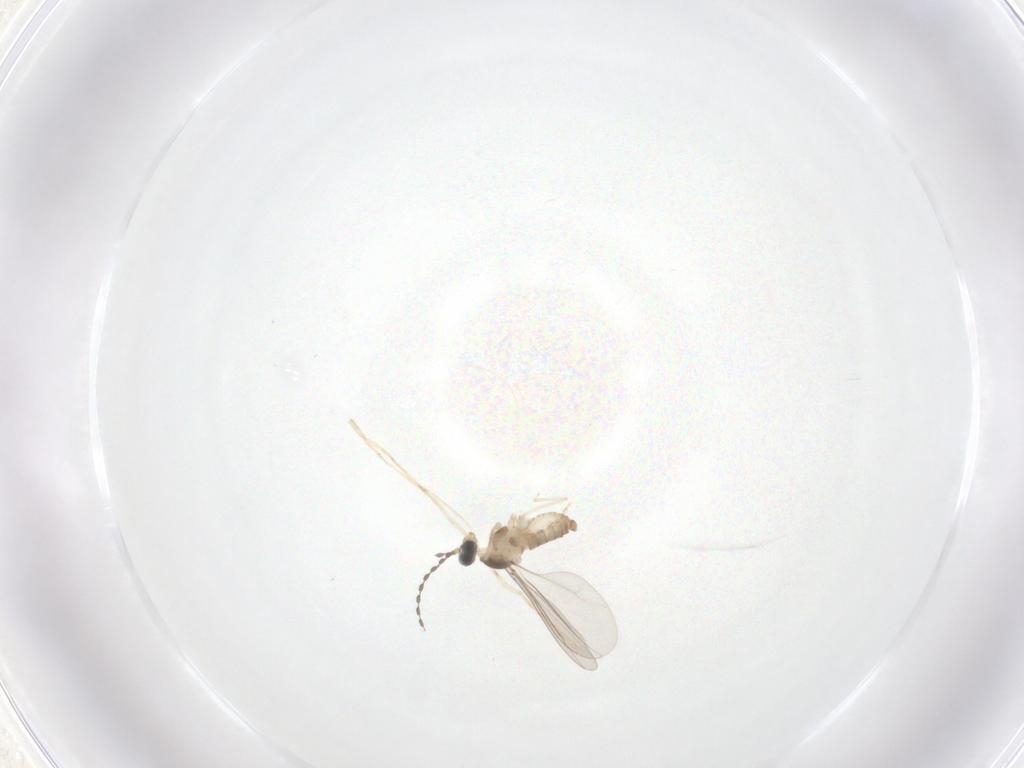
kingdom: Animalia
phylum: Arthropoda
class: Insecta
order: Diptera
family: Cecidomyiidae
